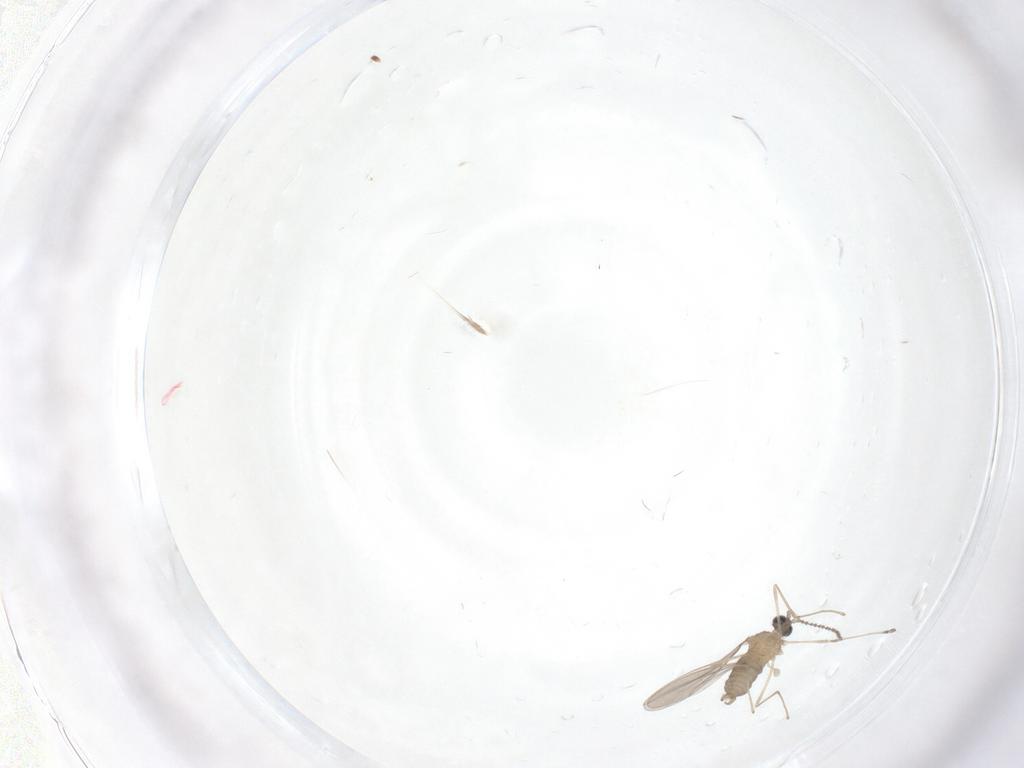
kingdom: Animalia
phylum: Arthropoda
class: Insecta
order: Diptera
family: Cecidomyiidae
